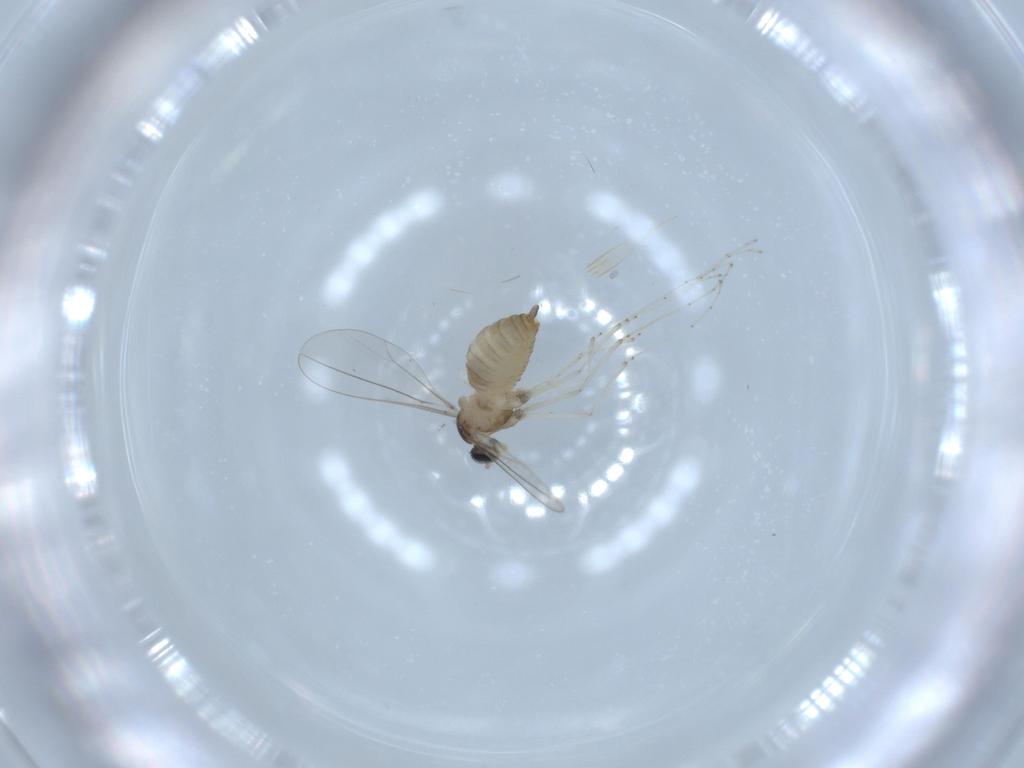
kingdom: Animalia
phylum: Arthropoda
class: Insecta
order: Diptera
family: Cecidomyiidae
